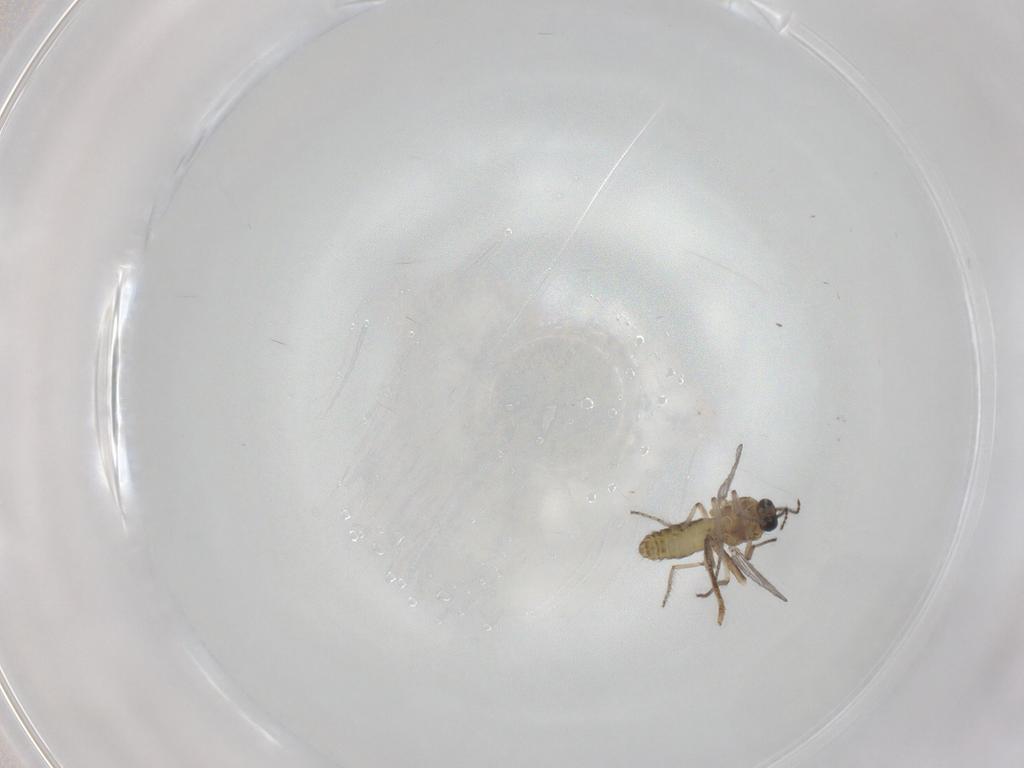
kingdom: Animalia
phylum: Arthropoda
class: Insecta
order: Diptera
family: Ceratopogonidae
